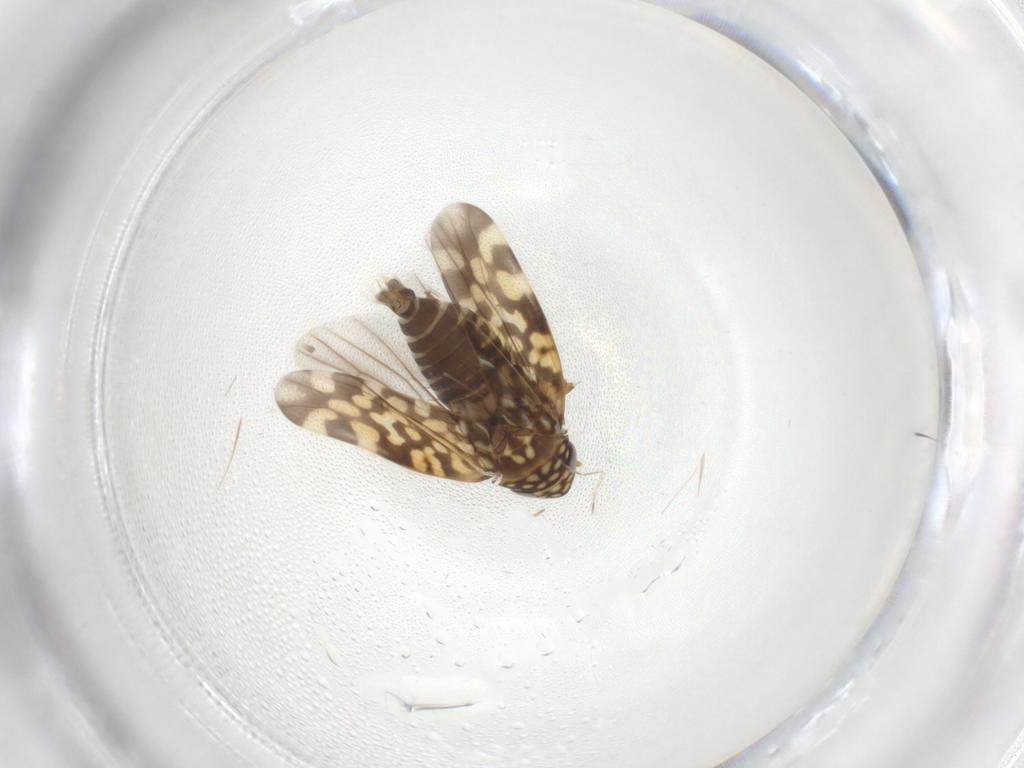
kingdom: Animalia
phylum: Arthropoda
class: Insecta
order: Hemiptera
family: Cicadellidae
